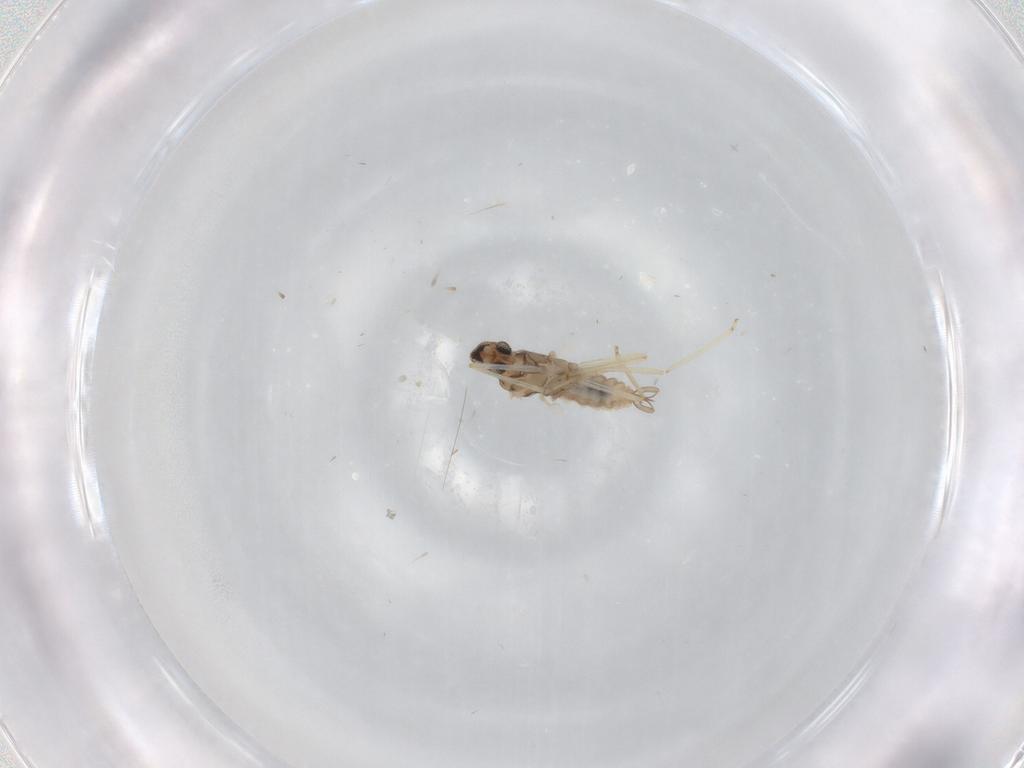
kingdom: Animalia
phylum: Arthropoda
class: Insecta
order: Diptera
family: Cecidomyiidae
